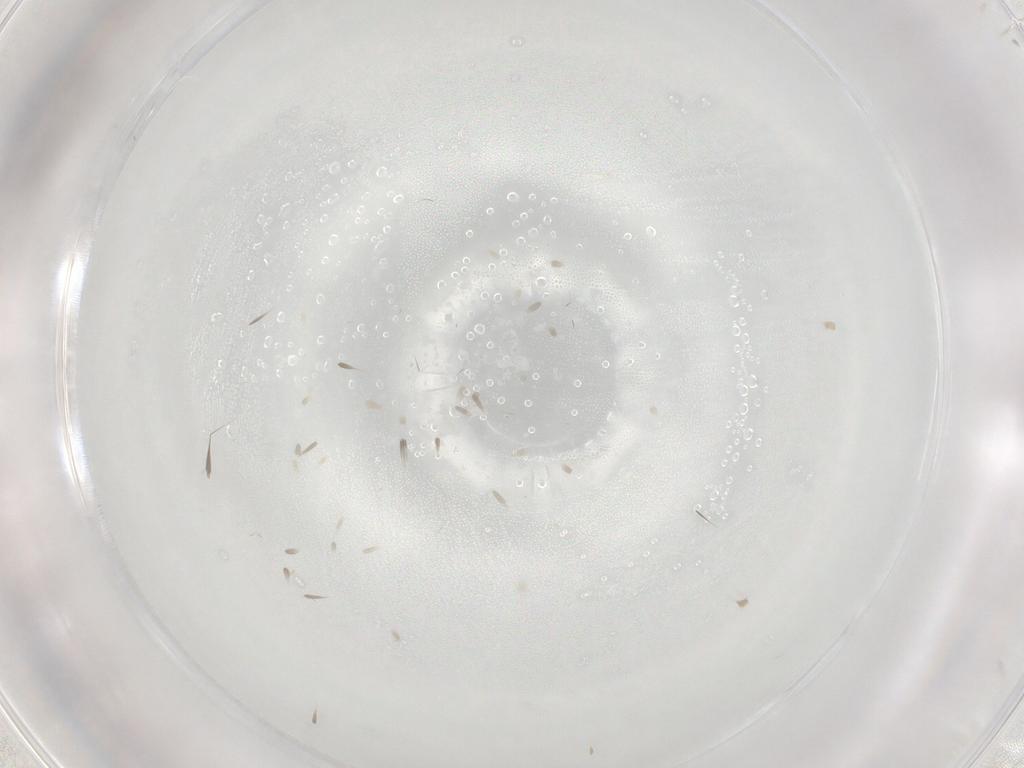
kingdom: Animalia
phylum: Arthropoda
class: Insecta
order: Lepidoptera
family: Tineidae
